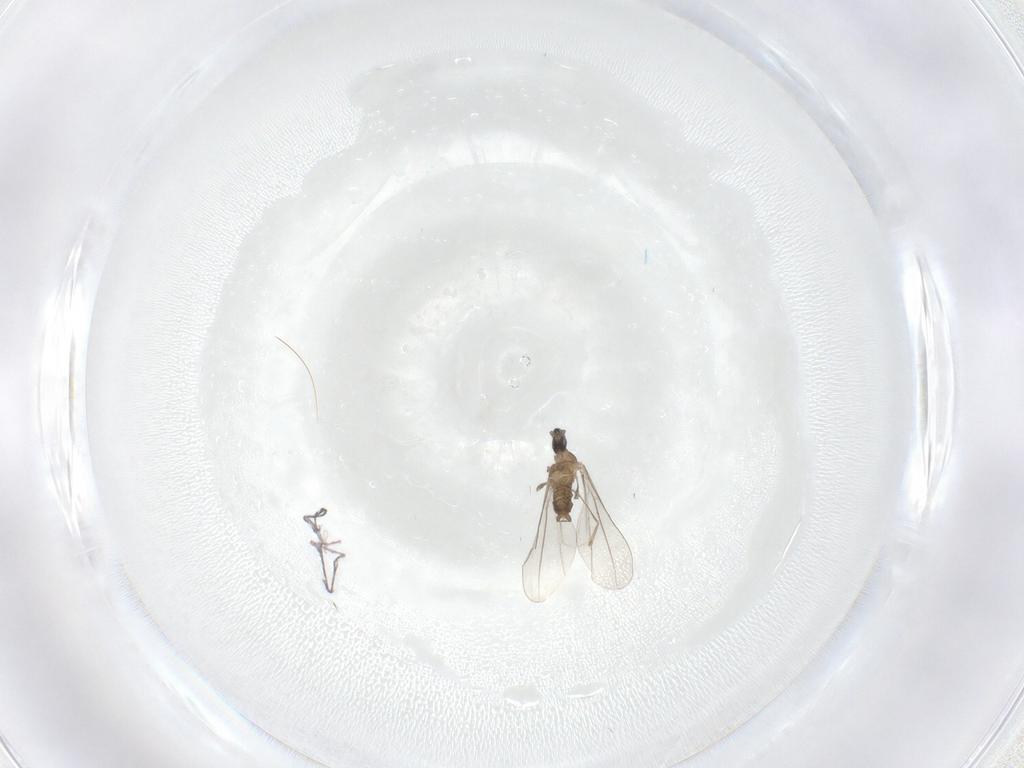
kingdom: Animalia
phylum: Arthropoda
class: Insecta
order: Diptera
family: Cecidomyiidae
